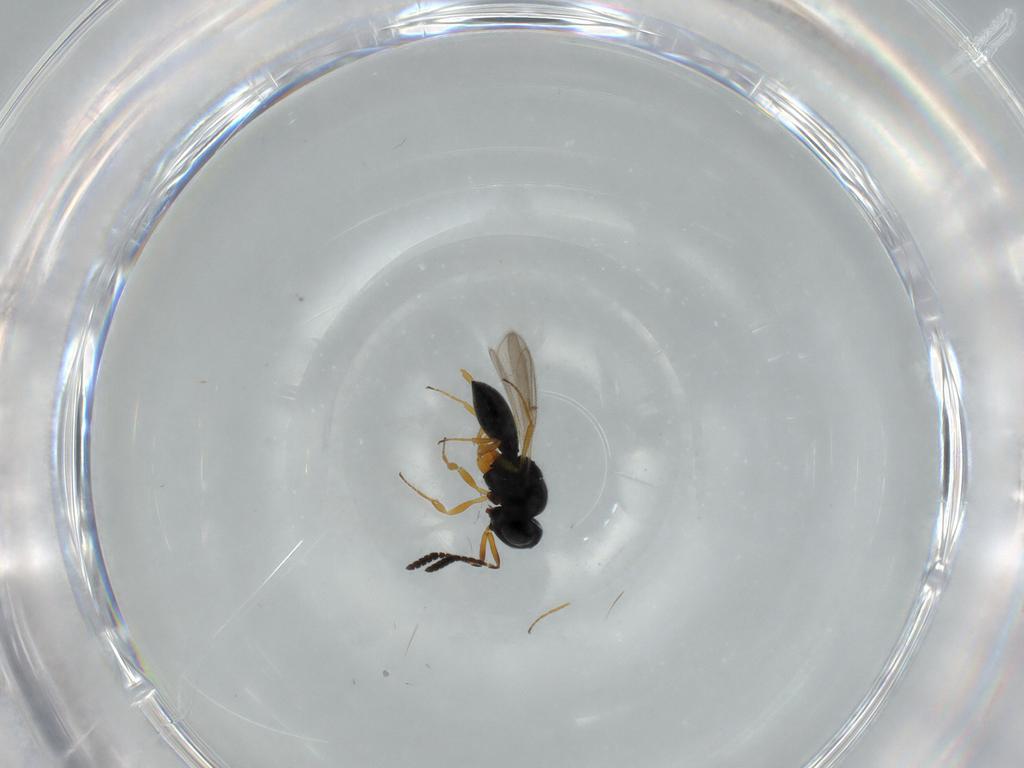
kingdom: Animalia
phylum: Arthropoda
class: Insecta
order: Hymenoptera
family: Scelionidae
